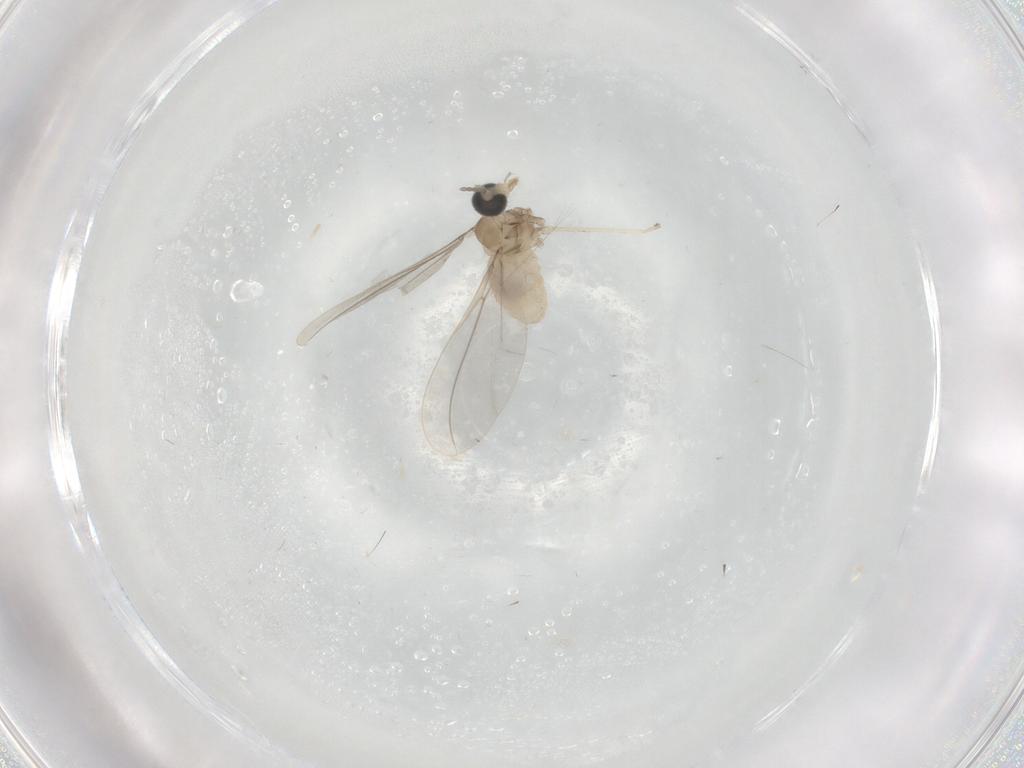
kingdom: Animalia
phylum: Arthropoda
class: Insecta
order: Diptera
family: Cecidomyiidae
